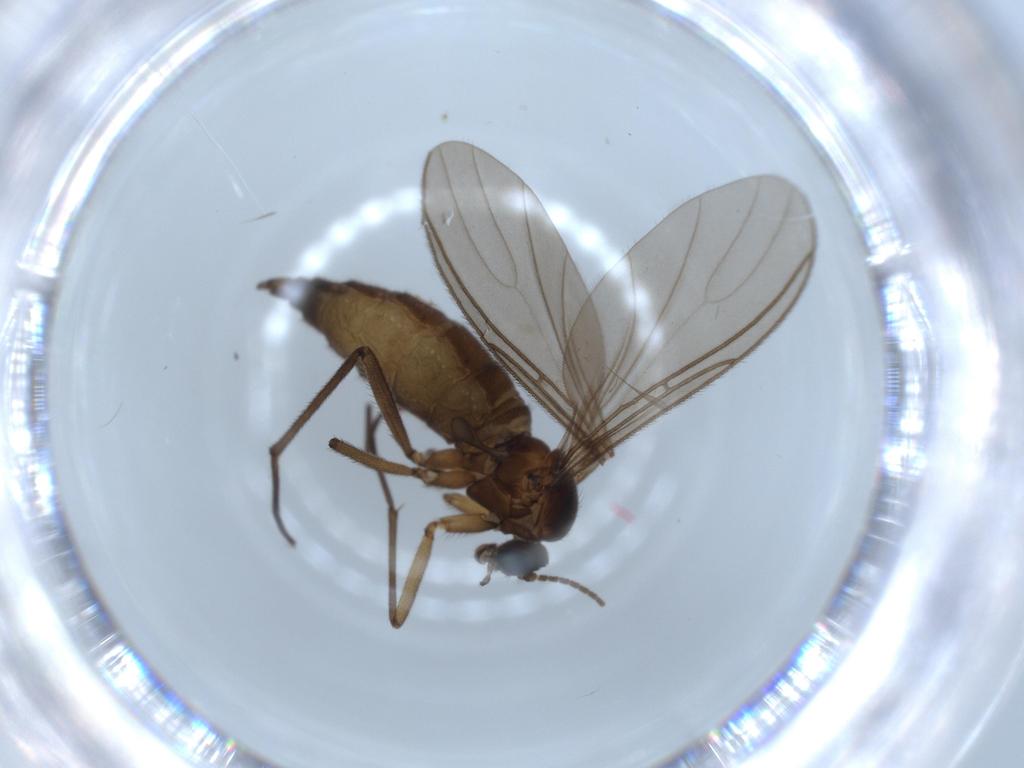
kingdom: Animalia
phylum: Arthropoda
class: Insecta
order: Diptera
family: Sciaridae
